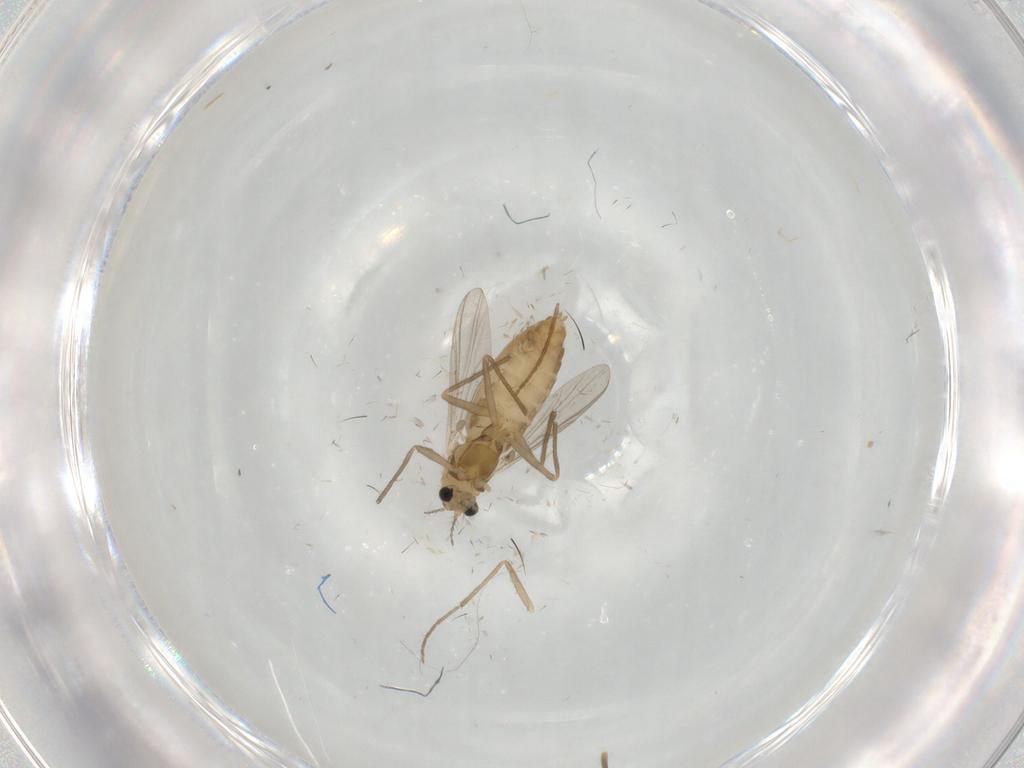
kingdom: Animalia
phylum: Arthropoda
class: Insecta
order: Diptera
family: Chironomidae
